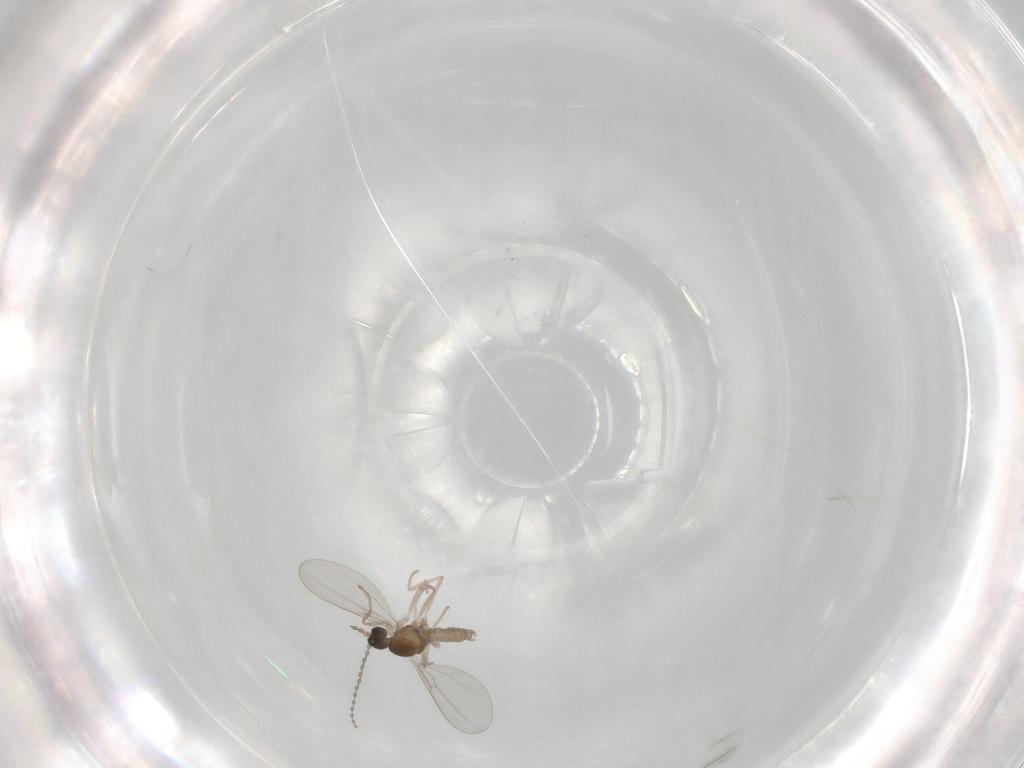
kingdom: Animalia
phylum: Arthropoda
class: Insecta
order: Diptera
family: Cecidomyiidae
